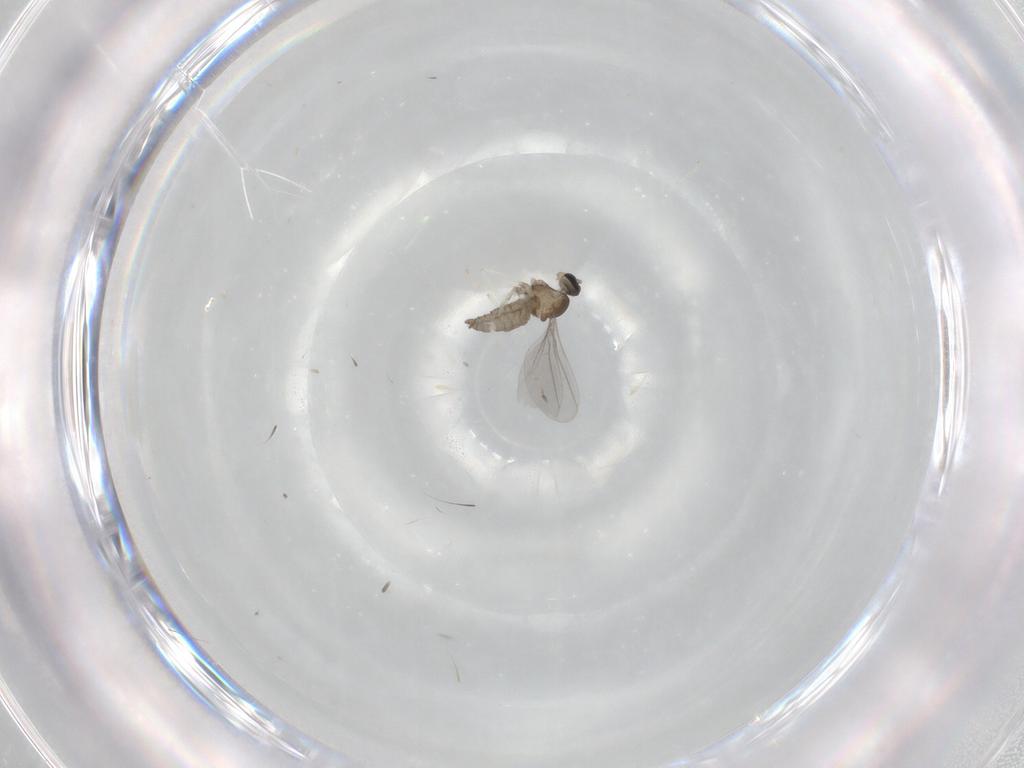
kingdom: Animalia
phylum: Arthropoda
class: Insecta
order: Diptera
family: Cecidomyiidae
